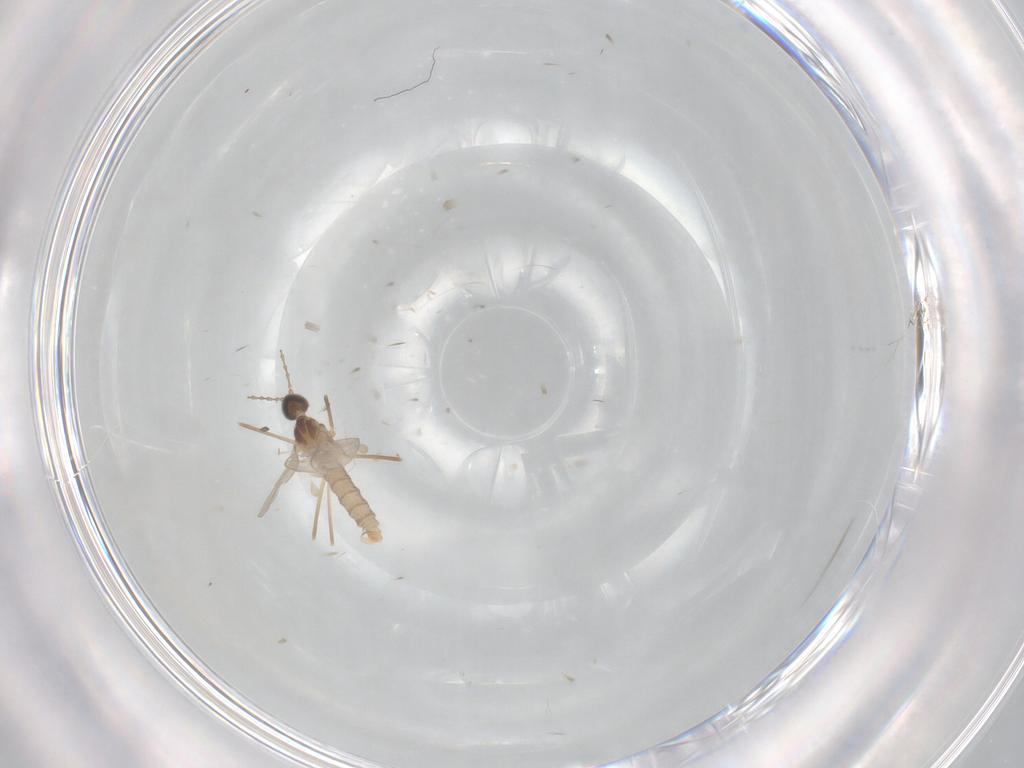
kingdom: Animalia
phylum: Arthropoda
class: Insecta
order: Diptera
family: Cecidomyiidae
